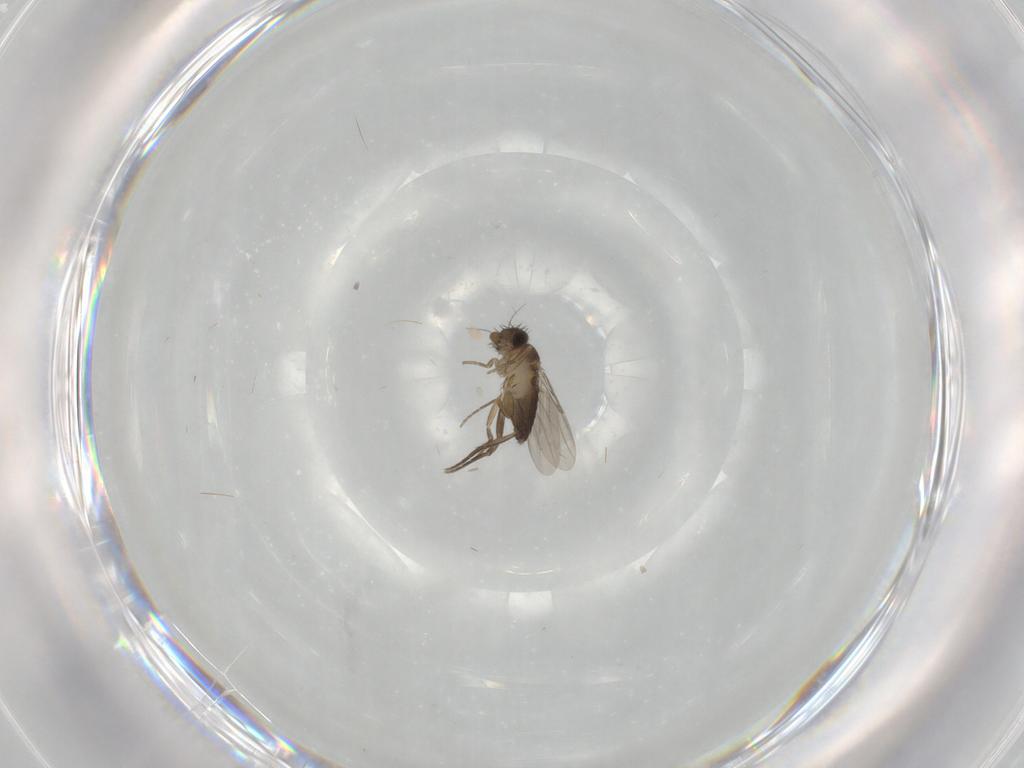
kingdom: Animalia
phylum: Arthropoda
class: Insecta
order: Diptera
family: Phoridae
